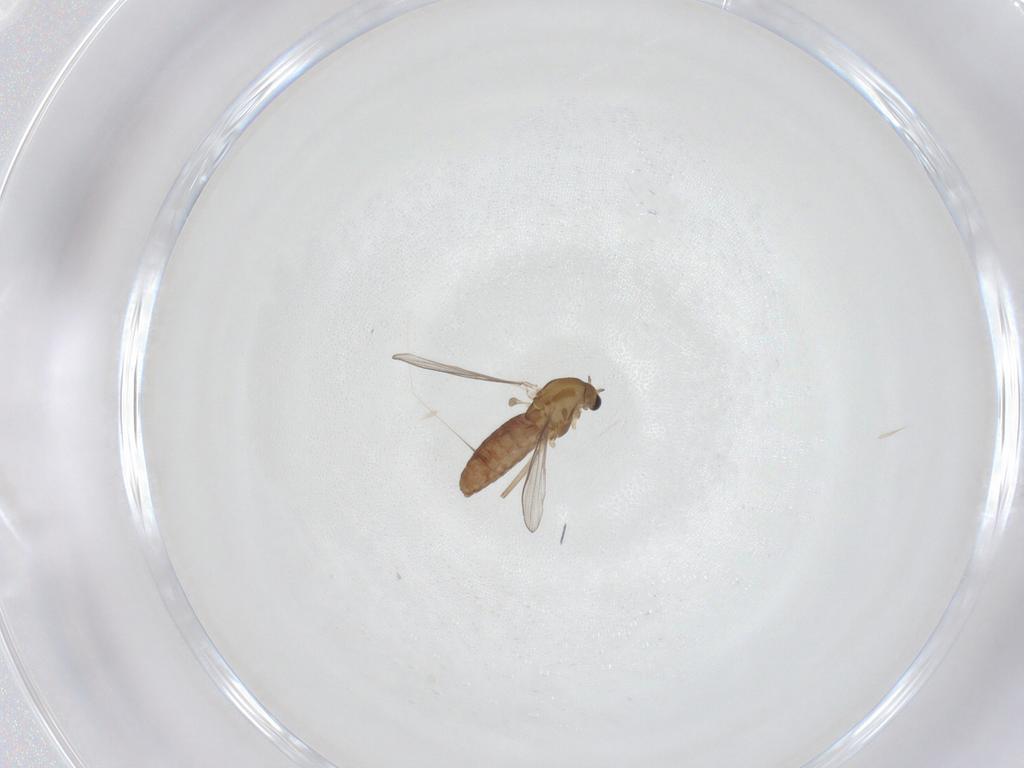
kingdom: Animalia
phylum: Arthropoda
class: Insecta
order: Diptera
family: Chironomidae
